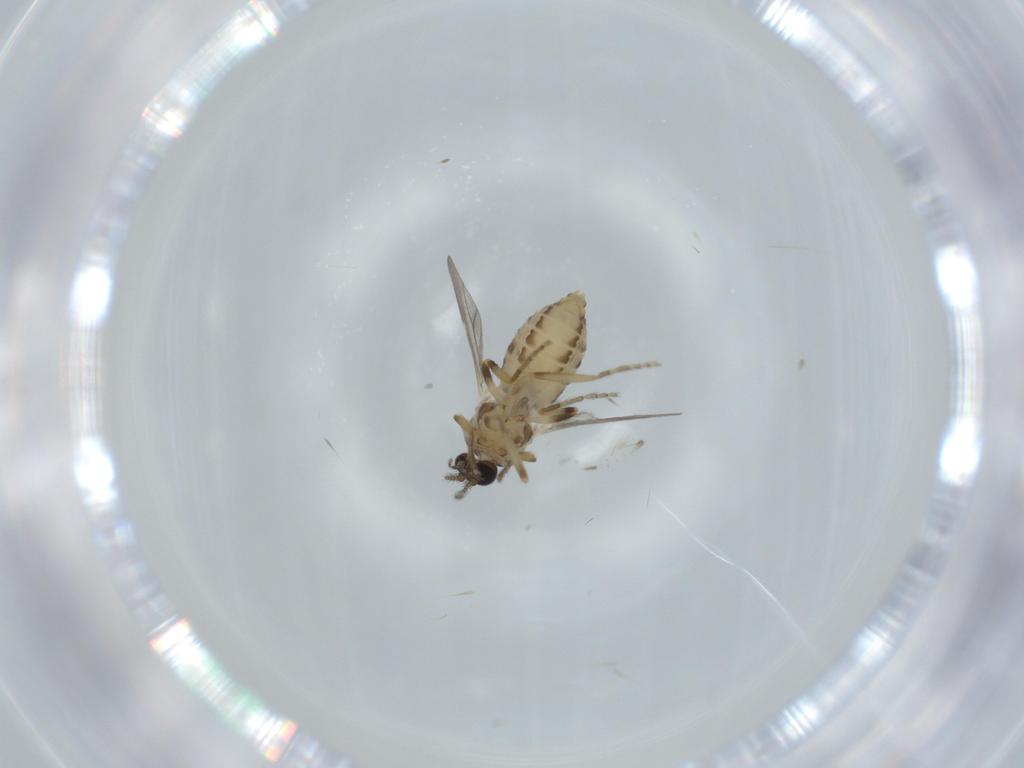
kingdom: Animalia
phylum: Arthropoda
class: Insecta
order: Diptera
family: Ceratopogonidae
